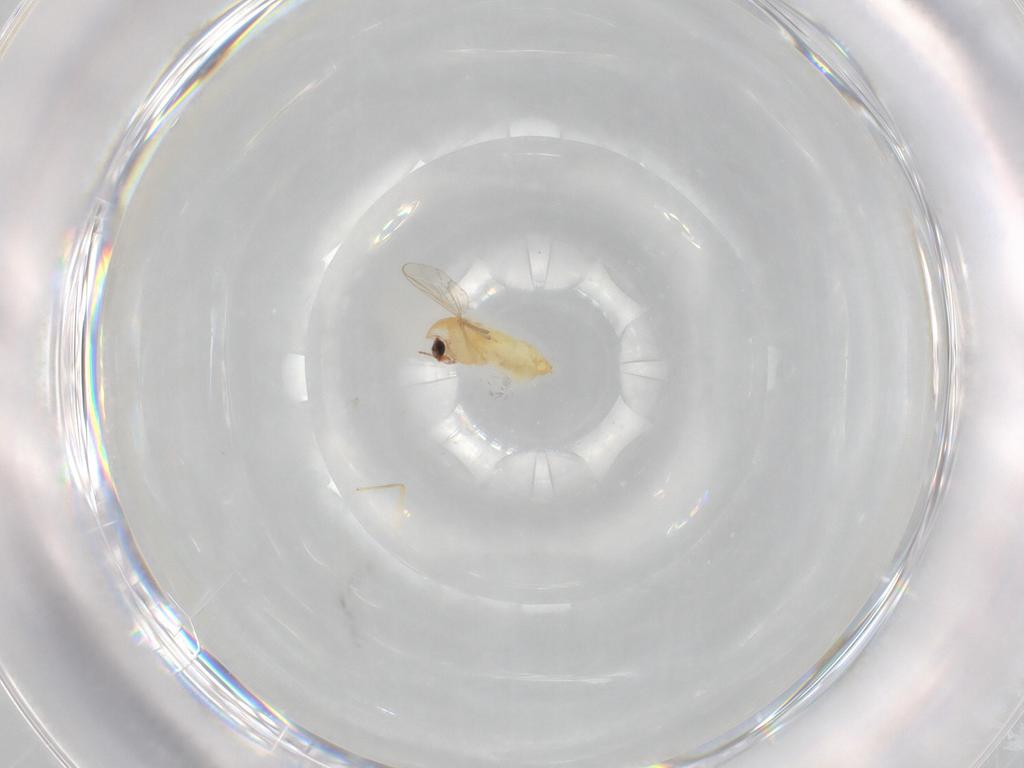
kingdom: Animalia
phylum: Arthropoda
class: Insecta
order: Diptera
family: Chironomidae
